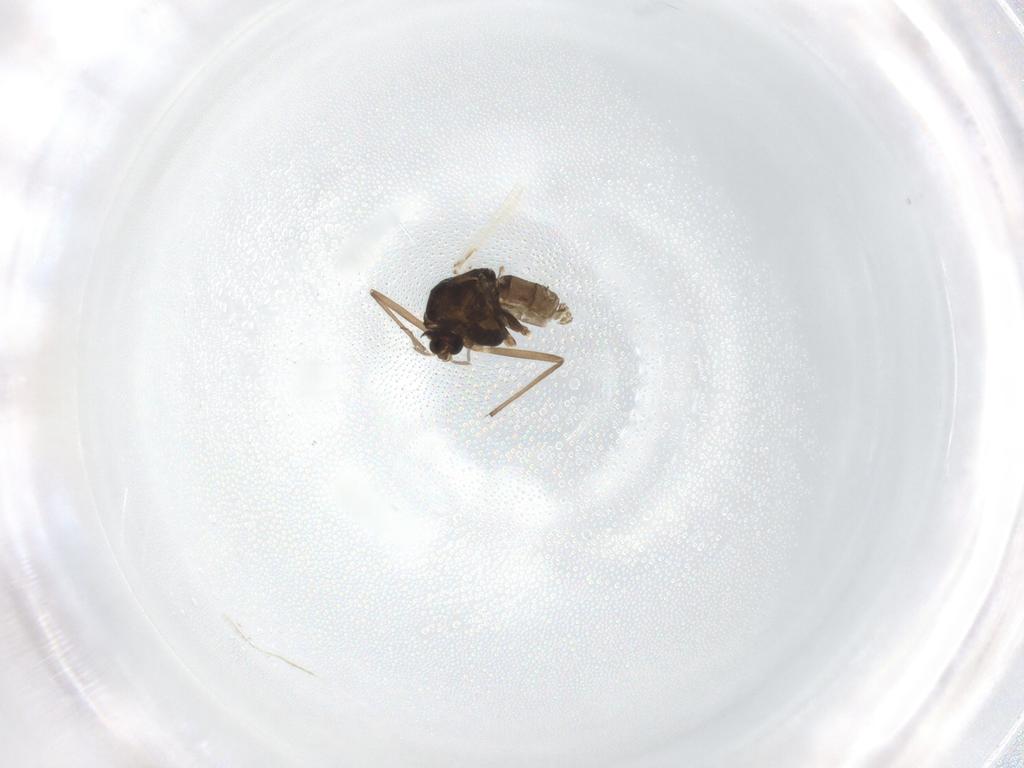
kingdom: Animalia
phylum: Arthropoda
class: Insecta
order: Diptera
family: Chironomidae
